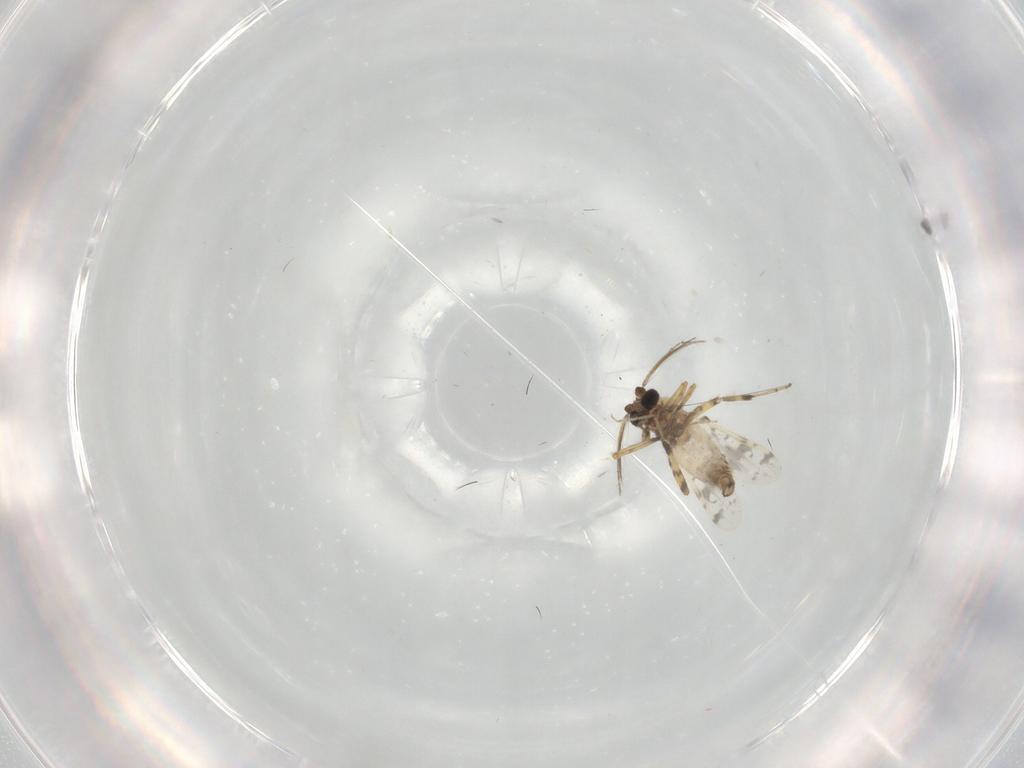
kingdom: Animalia
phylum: Arthropoda
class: Insecta
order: Diptera
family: Ceratopogonidae
